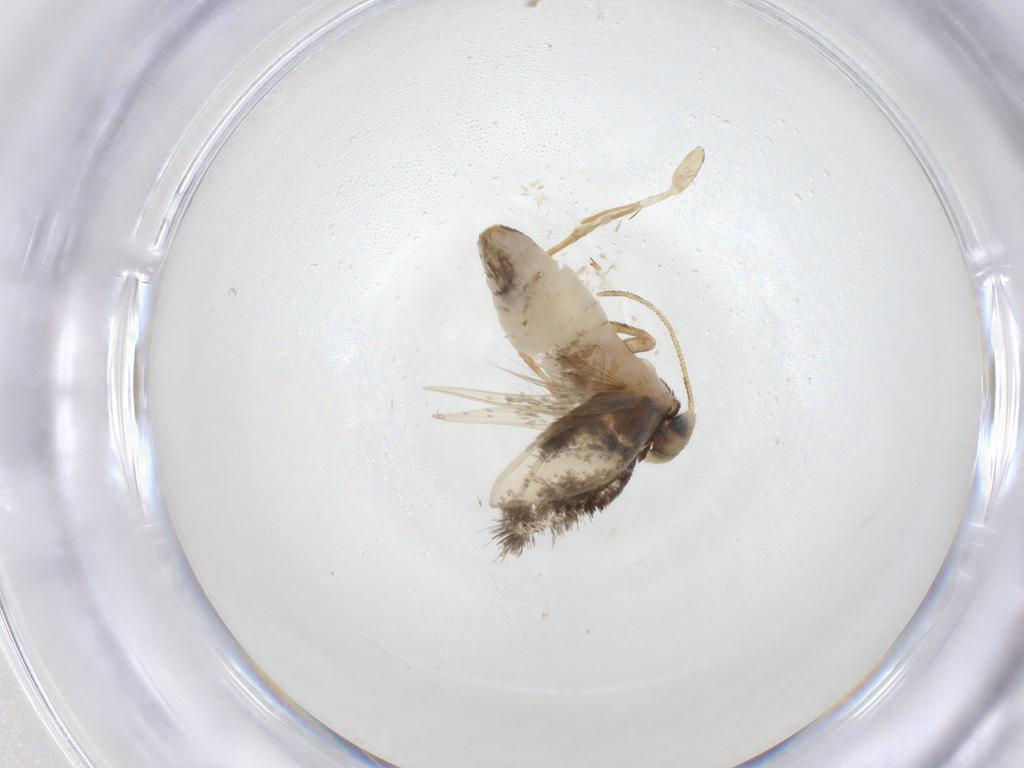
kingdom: Animalia
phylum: Arthropoda
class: Insecta
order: Lepidoptera
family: Nepticulidae
